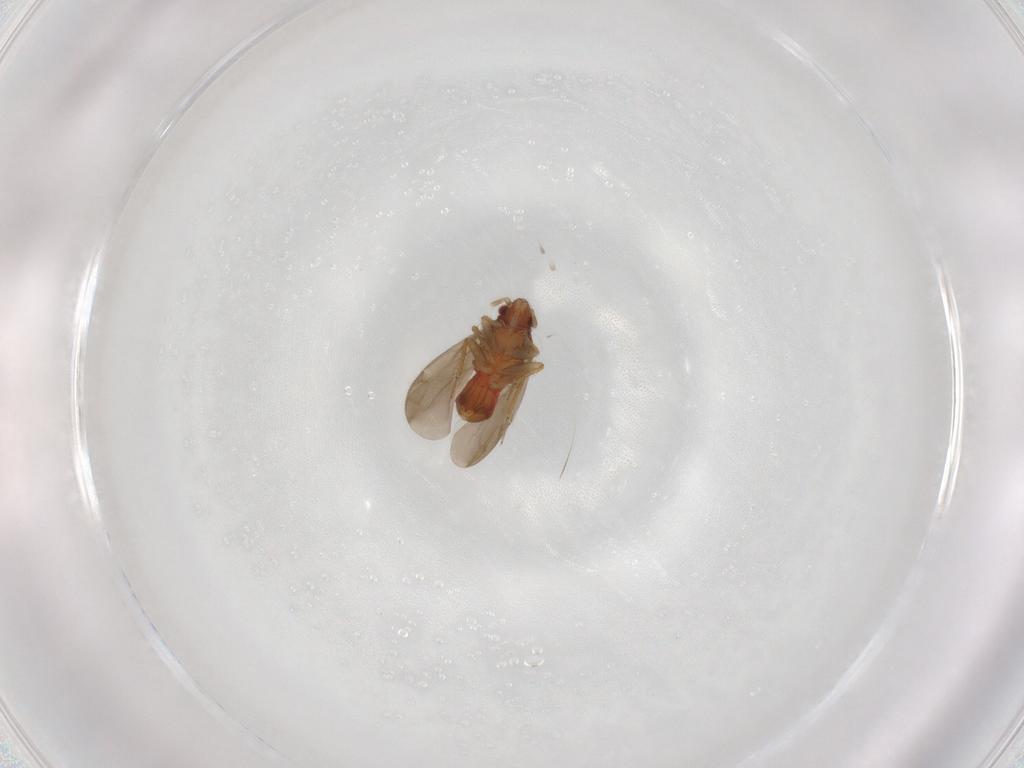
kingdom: Animalia
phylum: Arthropoda
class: Insecta
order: Hemiptera
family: Ceratocombidae
